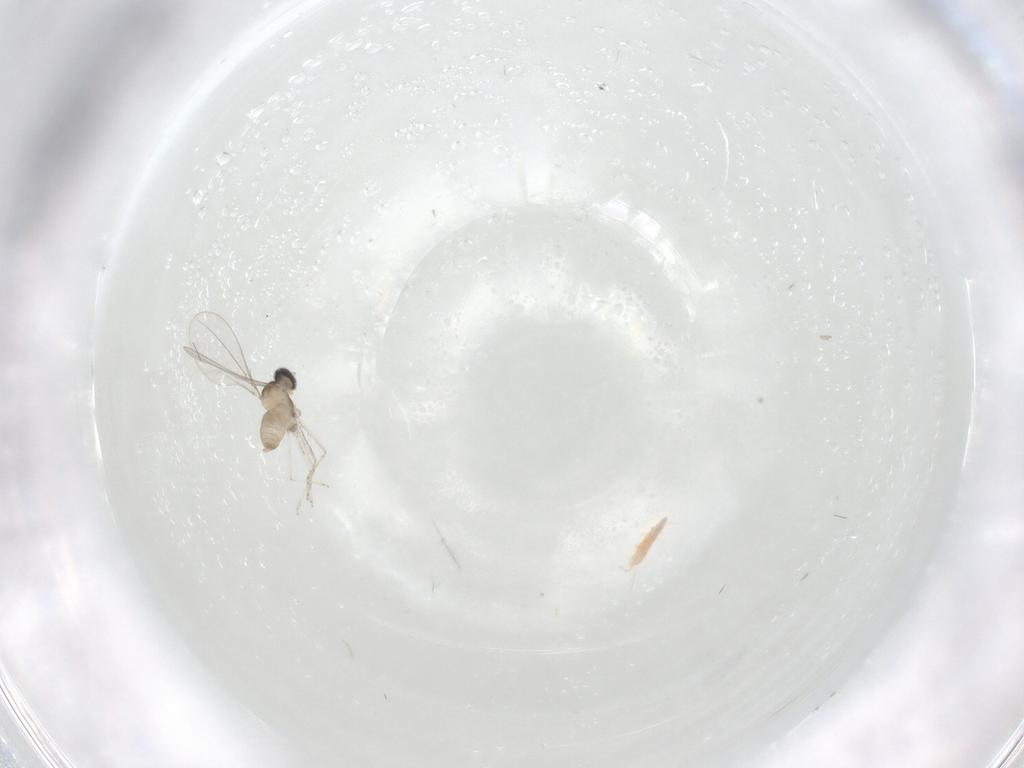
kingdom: Animalia
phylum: Arthropoda
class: Insecta
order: Diptera
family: Cecidomyiidae
